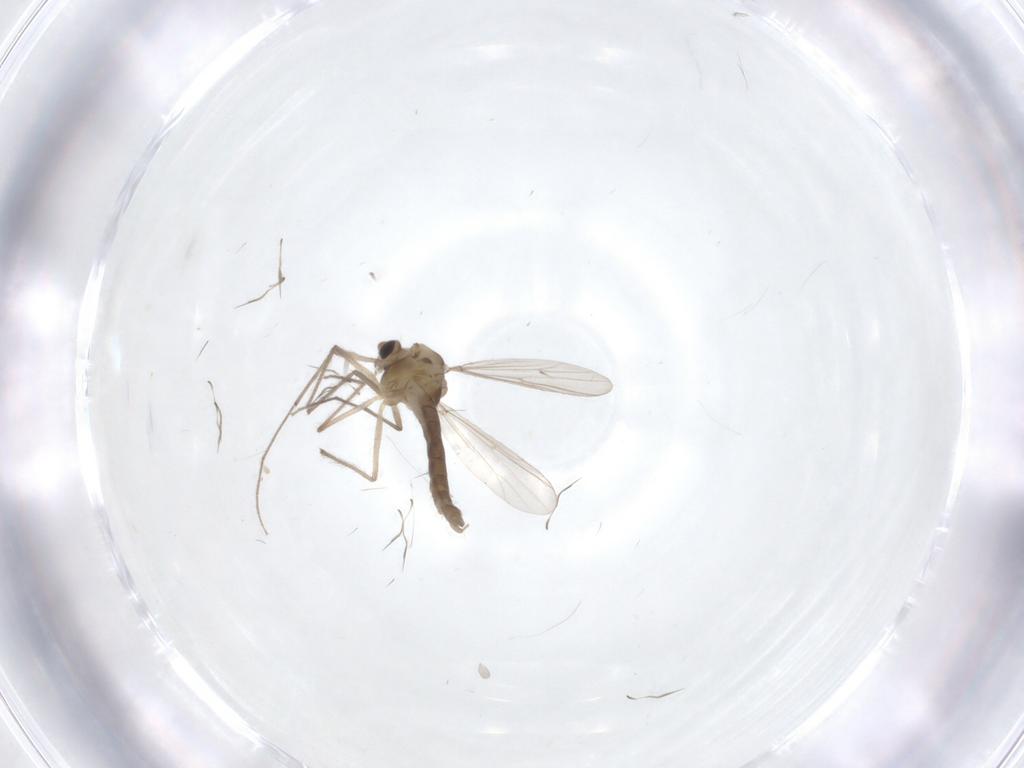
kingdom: Animalia
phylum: Arthropoda
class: Insecta
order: Diptera
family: Chironomidae
